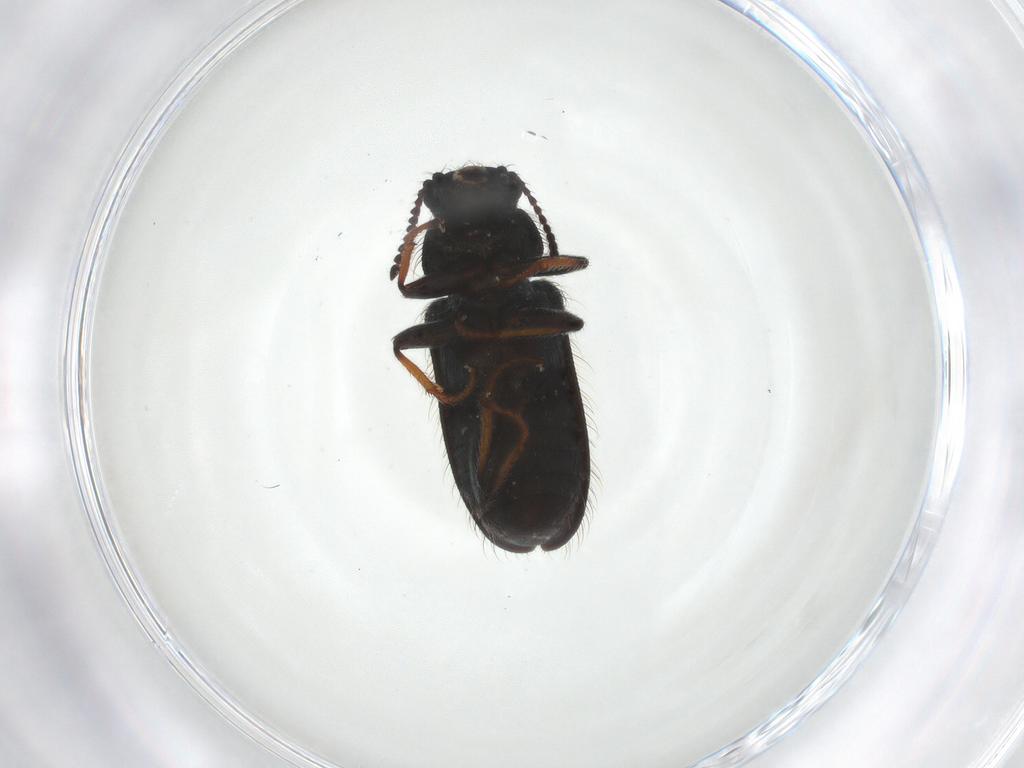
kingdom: Animalia
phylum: Arthropoda
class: Insecta
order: Coleoptera
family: Melyridae
